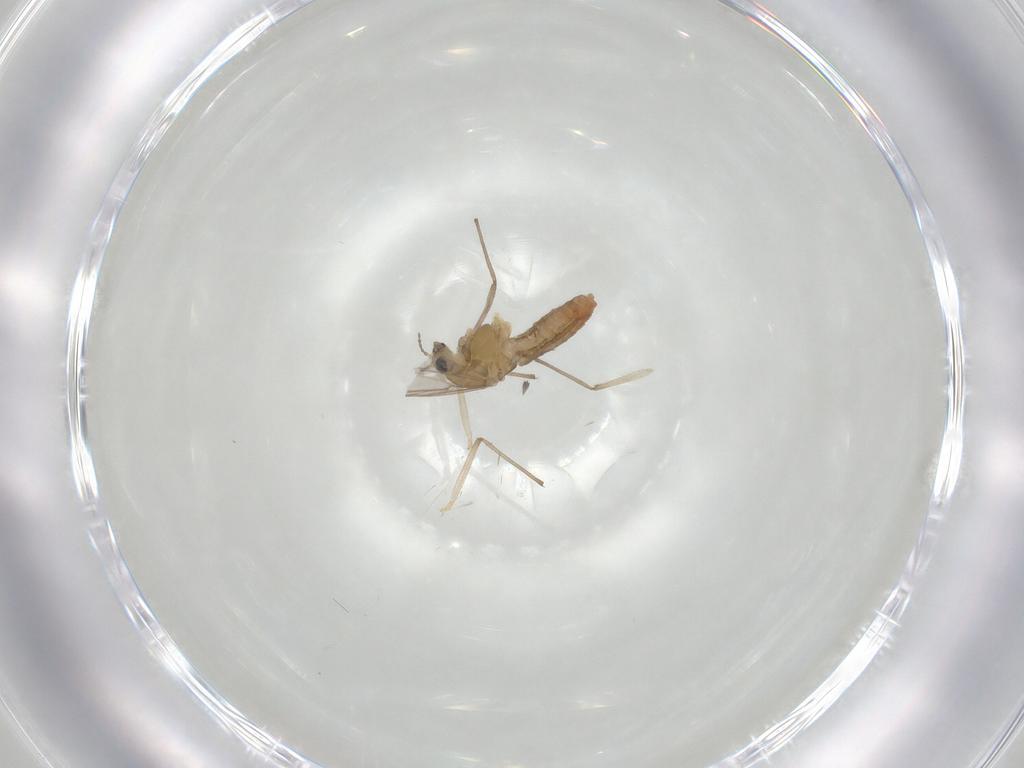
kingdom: Animalia
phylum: Arthropoda
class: Insecta
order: Diptera
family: Chironomidae
